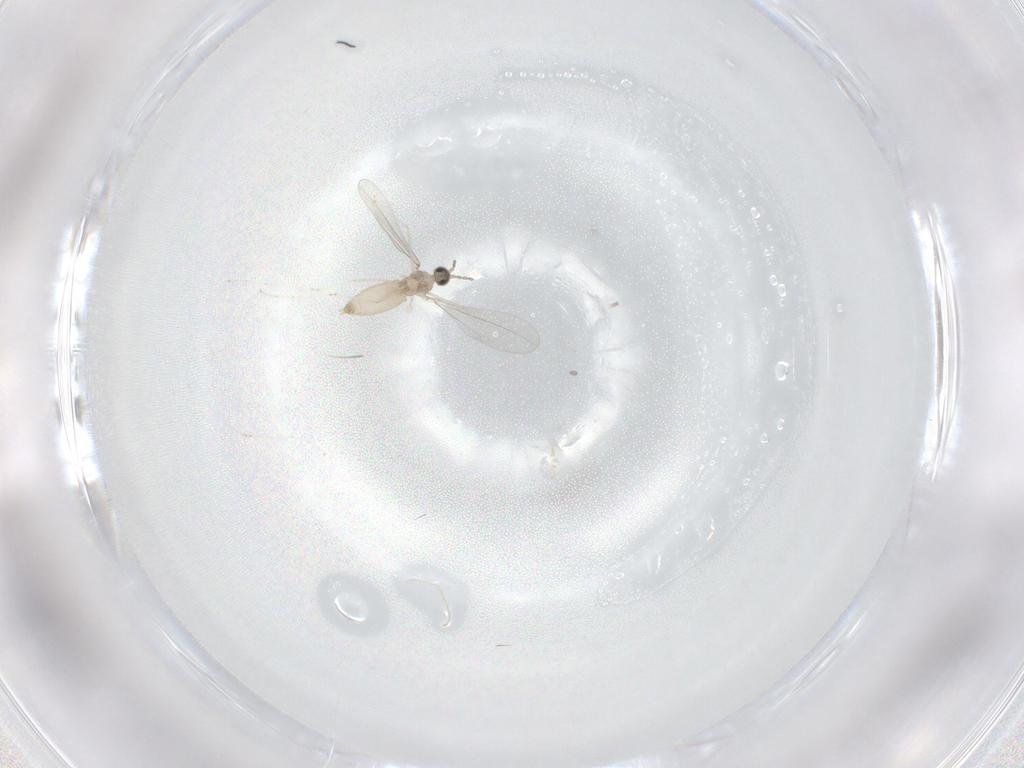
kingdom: Animalia
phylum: Arthropoda
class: Insecta
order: Diptera
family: Cecidomyiidae
